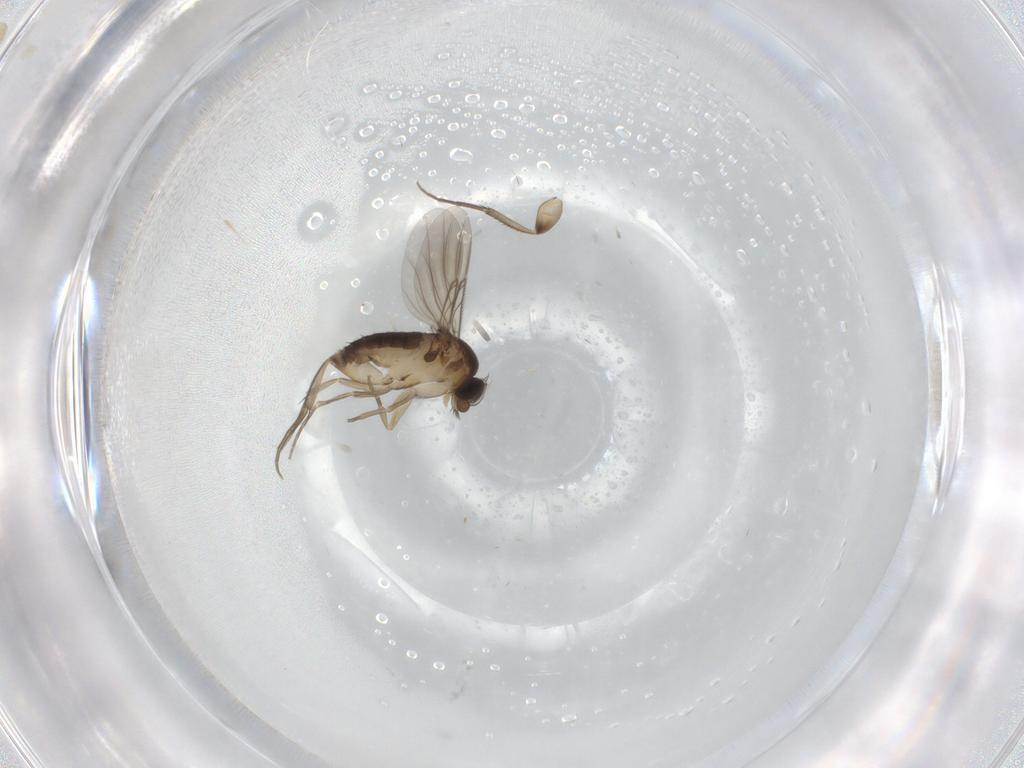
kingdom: Animalia
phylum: Arthropoda
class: Insecta
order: Diptera
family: Phoridae
